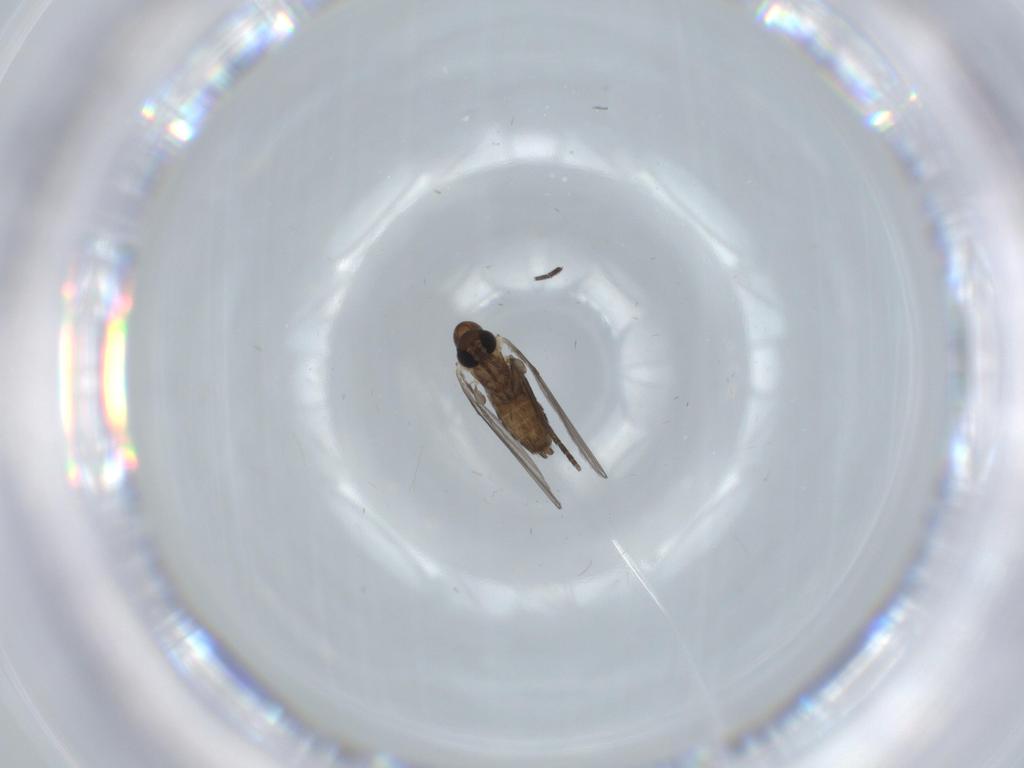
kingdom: Animalia
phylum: Arthropoda
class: Insecta
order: Diptera
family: Psychodidae
